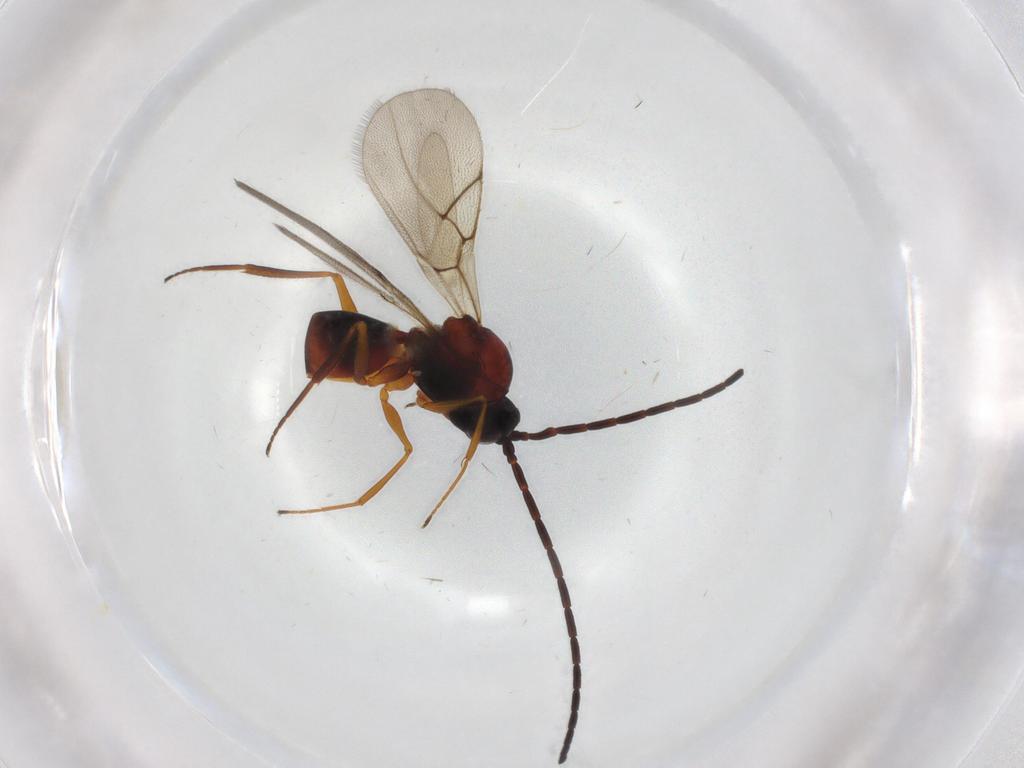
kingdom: Animalia
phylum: Arthropoda
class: Insecta
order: Hymenoptera
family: Figitidae
